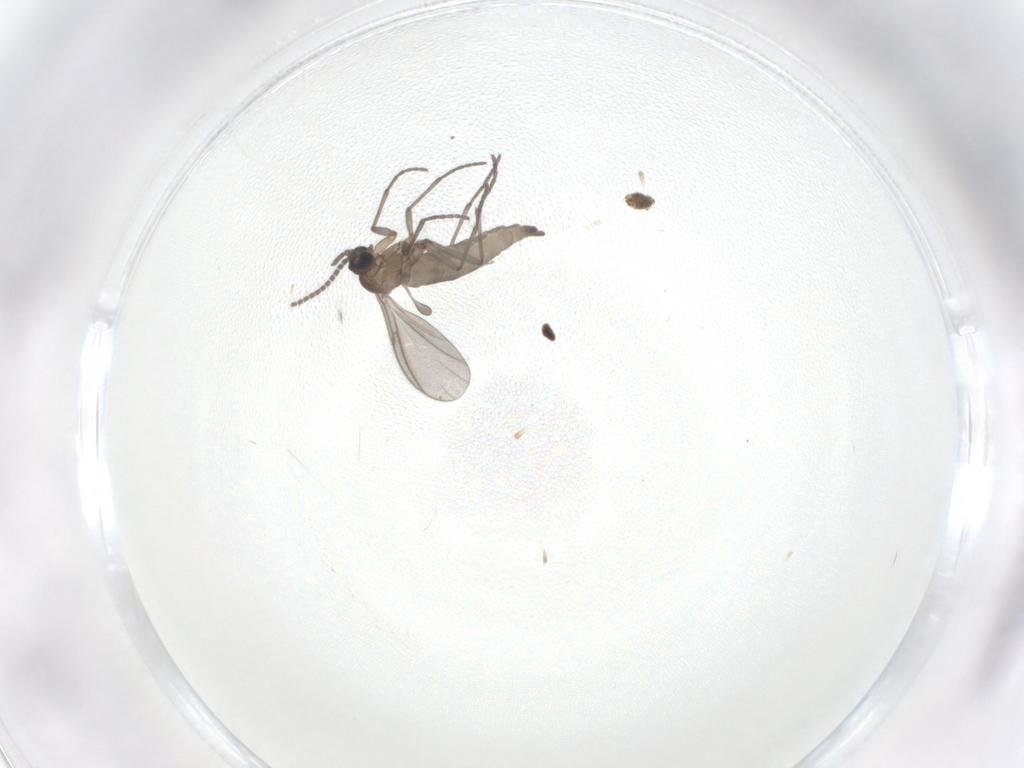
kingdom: Animalia
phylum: Arthropoda
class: Insecta
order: Diptera
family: Sciaridae
